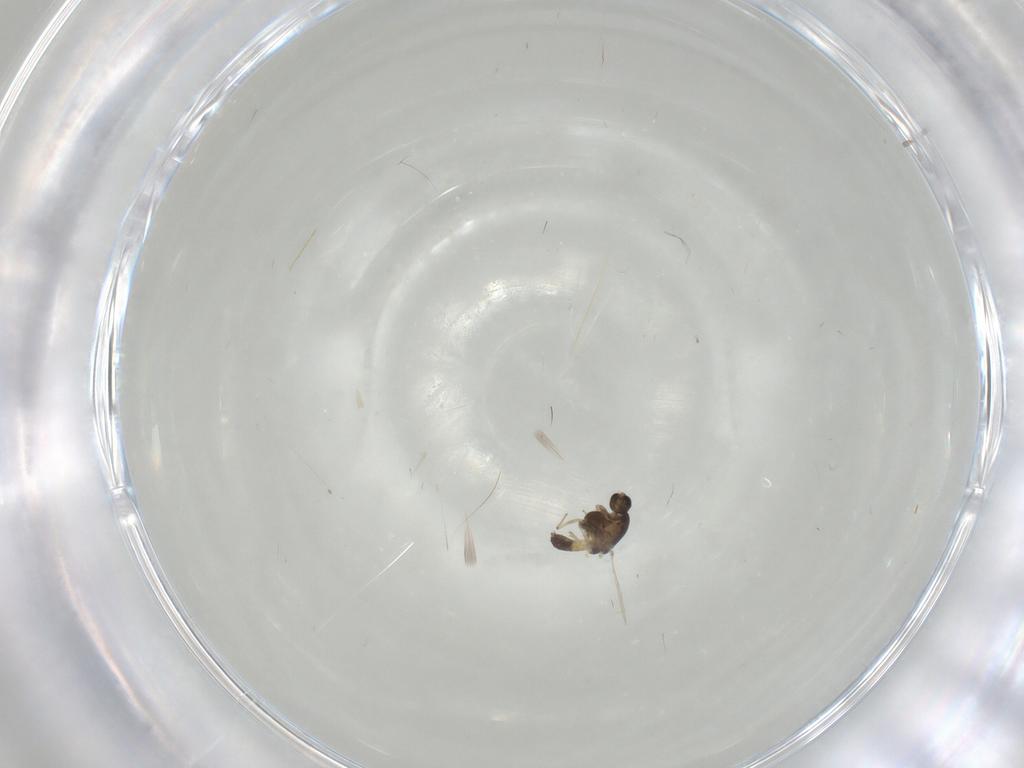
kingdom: Animalia
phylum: Arthropoda
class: Insecta
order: Diptera
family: Chironomidae
